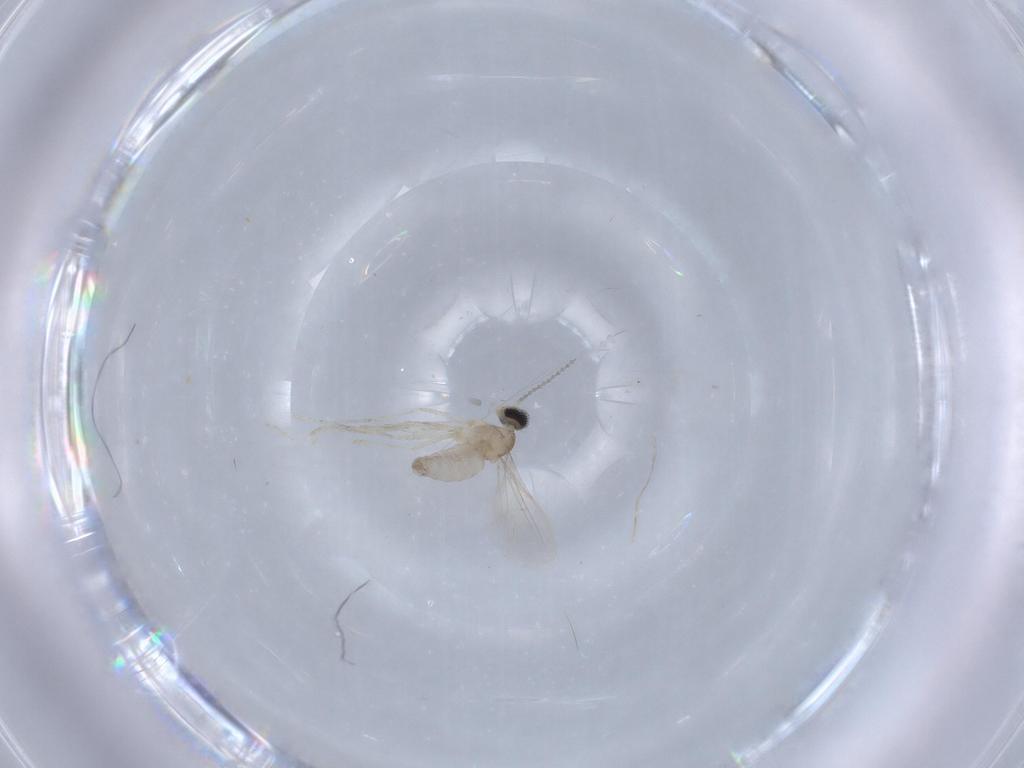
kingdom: Animalia
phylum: Arthropoda
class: Insecta
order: Diptera
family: Cecidomyiidae
